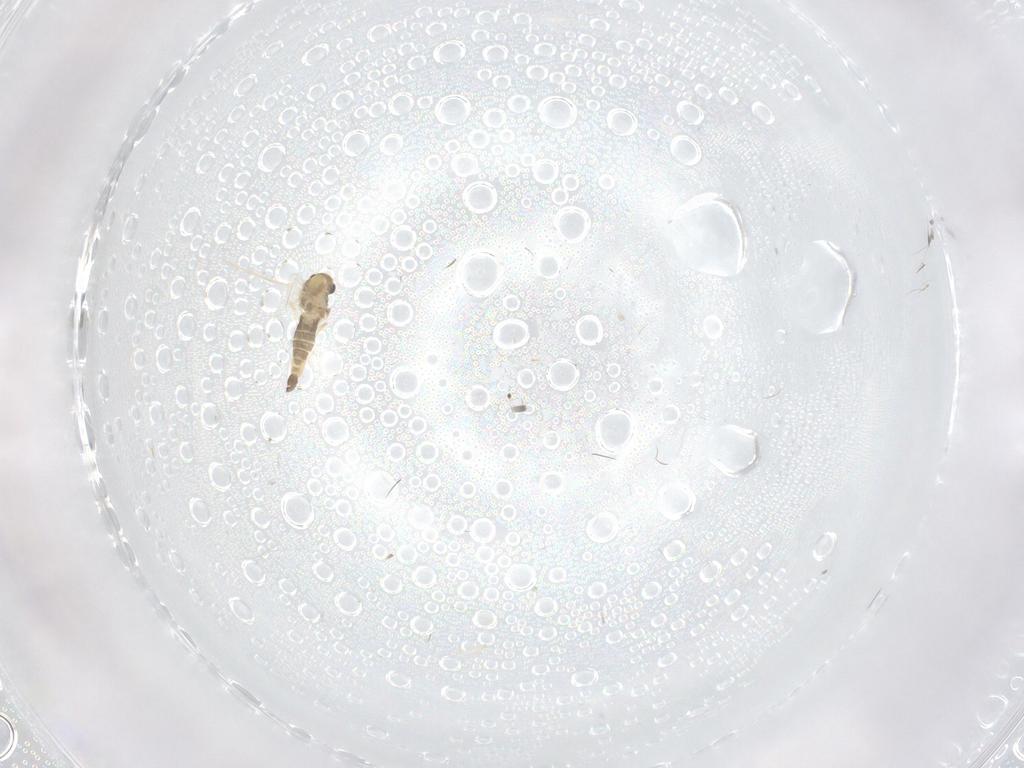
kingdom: Animalia
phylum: Arthropoda
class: Insecta
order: Diptera
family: Chironomidae
